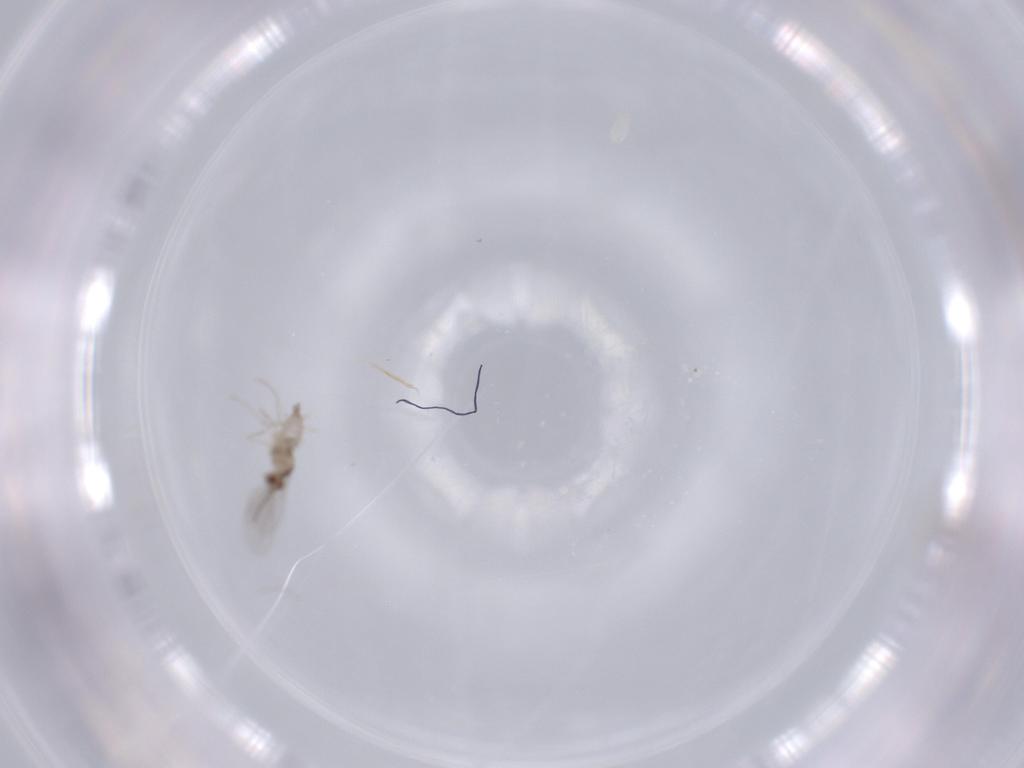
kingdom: Animalia
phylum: Arthropoda
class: Insecta
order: Diptera
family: Cecidomyiidae
